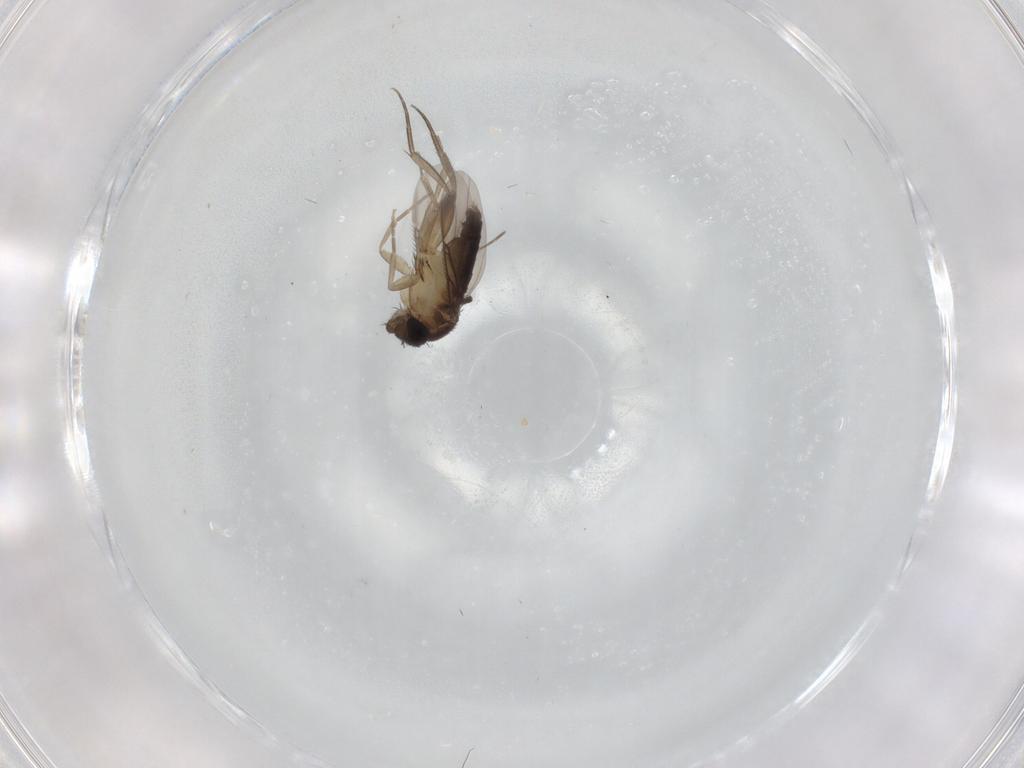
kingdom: Animalia
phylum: Arthropoda
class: Insecta
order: Diptera
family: Phoridae
